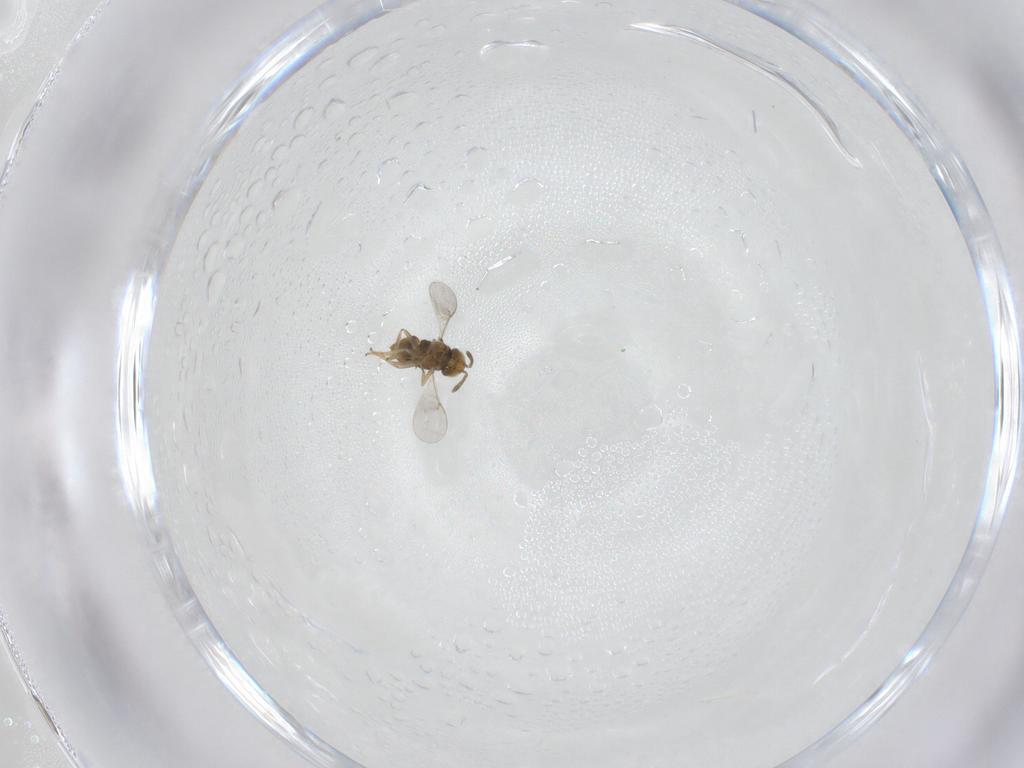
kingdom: Animalia
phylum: Arthropoda
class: Insecta
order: Hymenoptera
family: Encyrtidae
